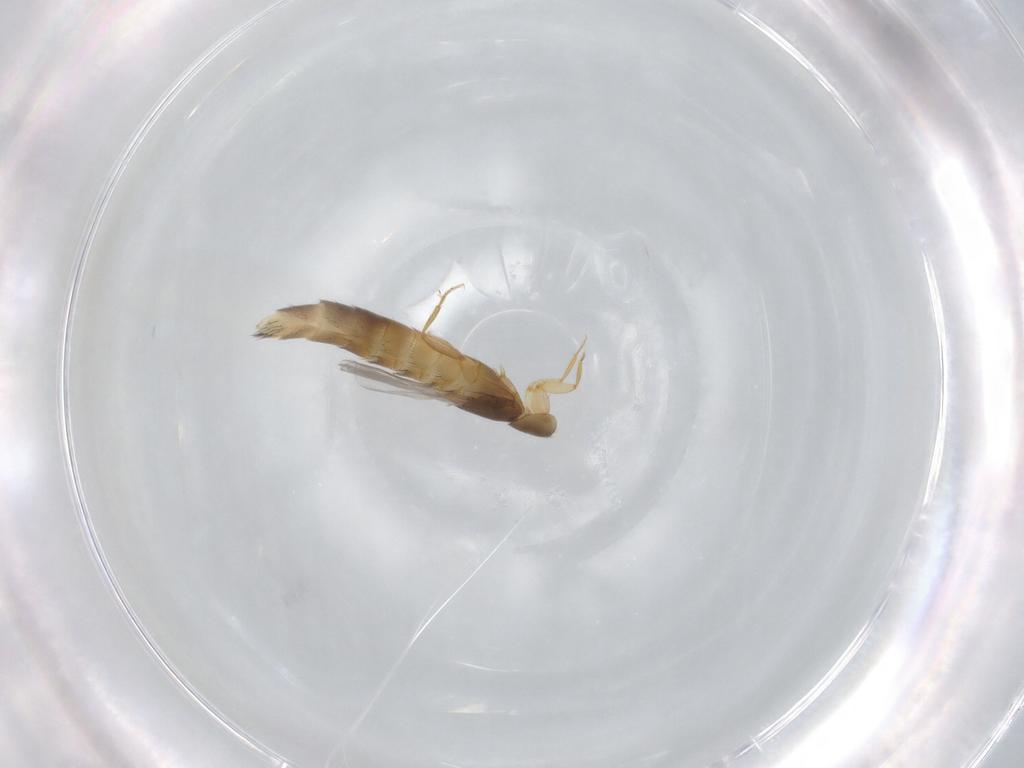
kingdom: Animalia
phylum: Arthropoda
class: Insecta
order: Coleoptera
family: Staphylinidae
